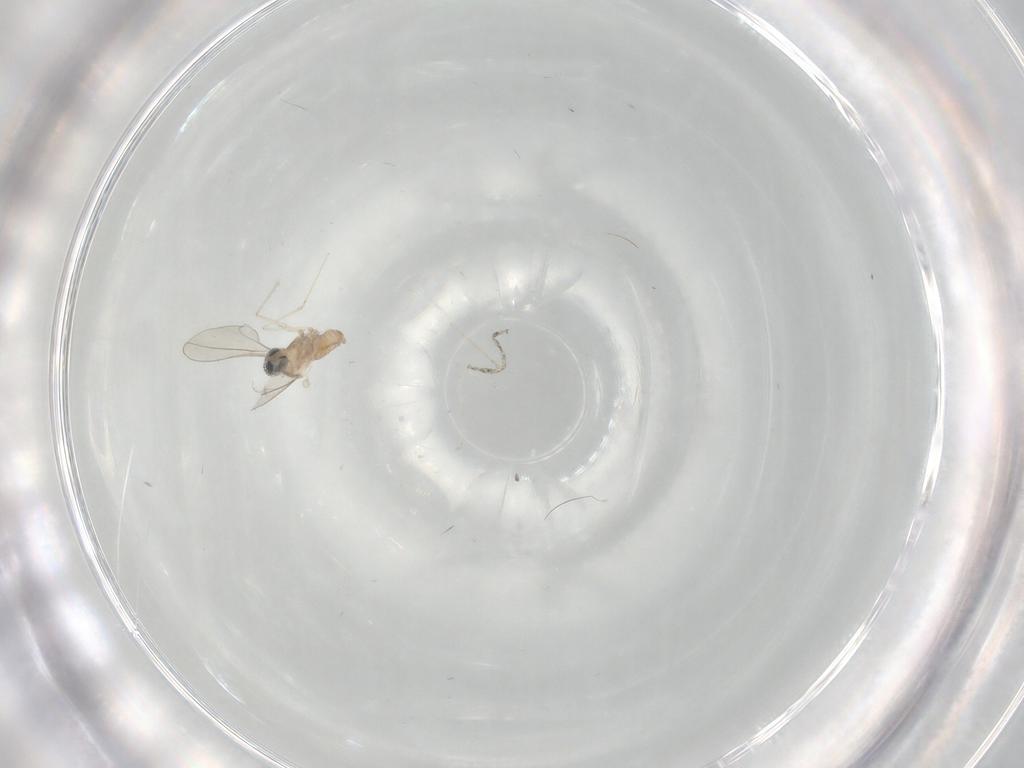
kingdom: Animalia
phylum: Arthropoda
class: Insecta
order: Diptera
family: Cecidomyiidae
